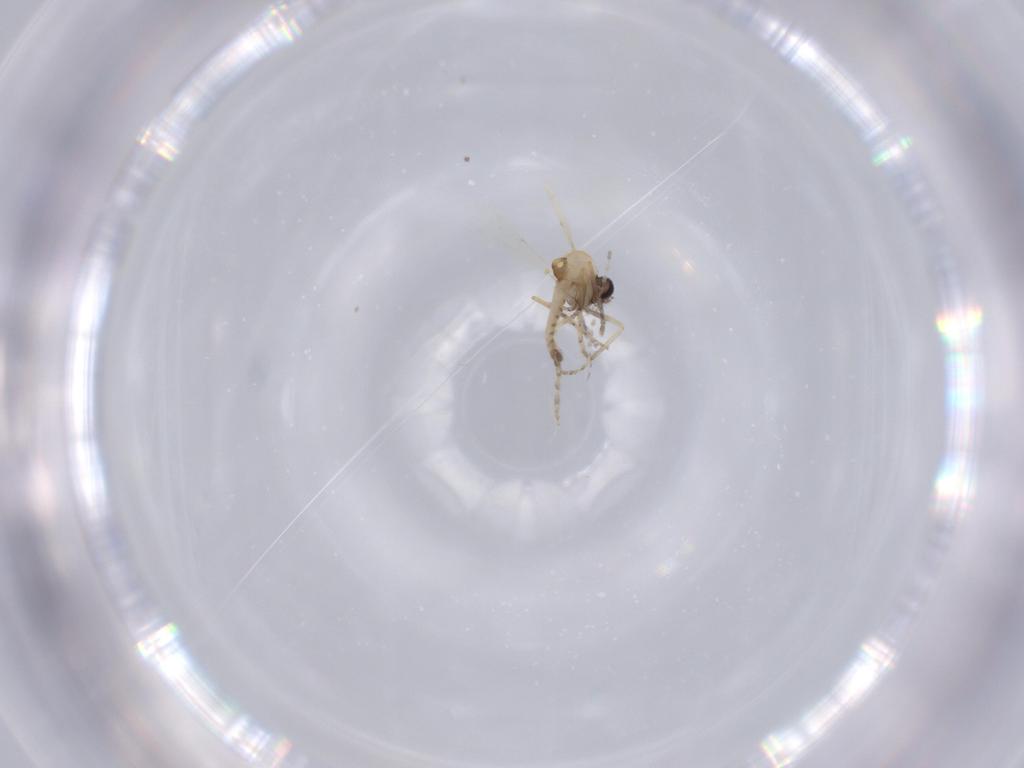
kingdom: Animalia
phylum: Arthropoda
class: Insecta
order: Diptera
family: Cecidomyiidae
